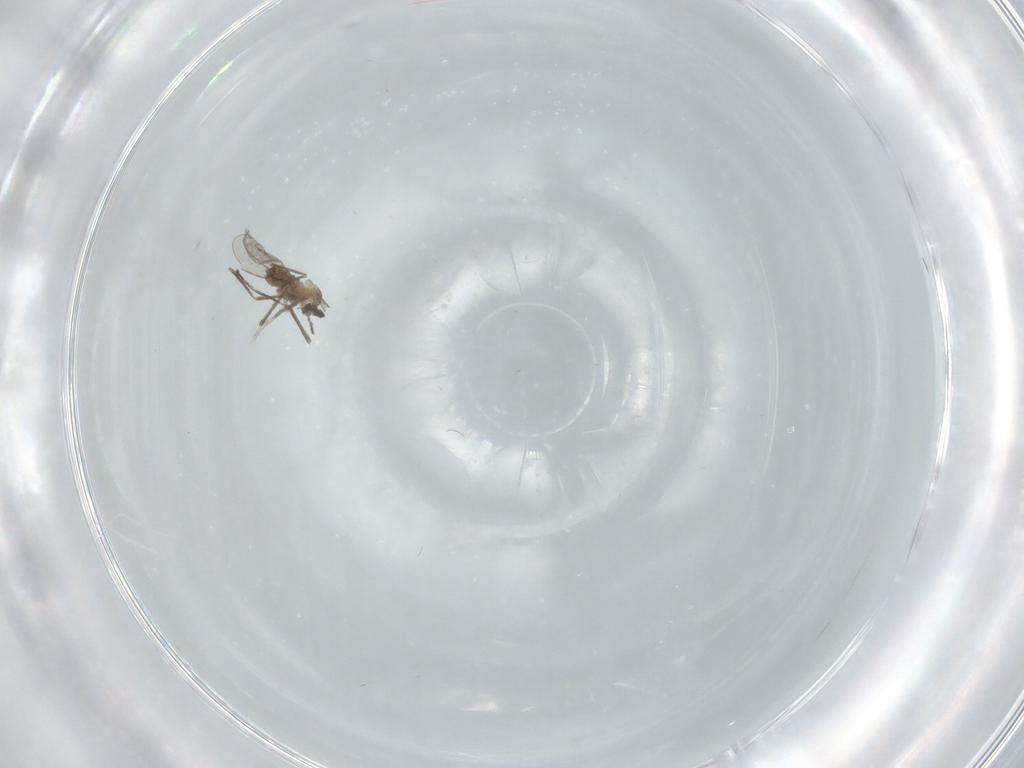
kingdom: Animalia
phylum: Arthropoda
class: Insecta
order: Diptera
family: Cecidomyiidae
